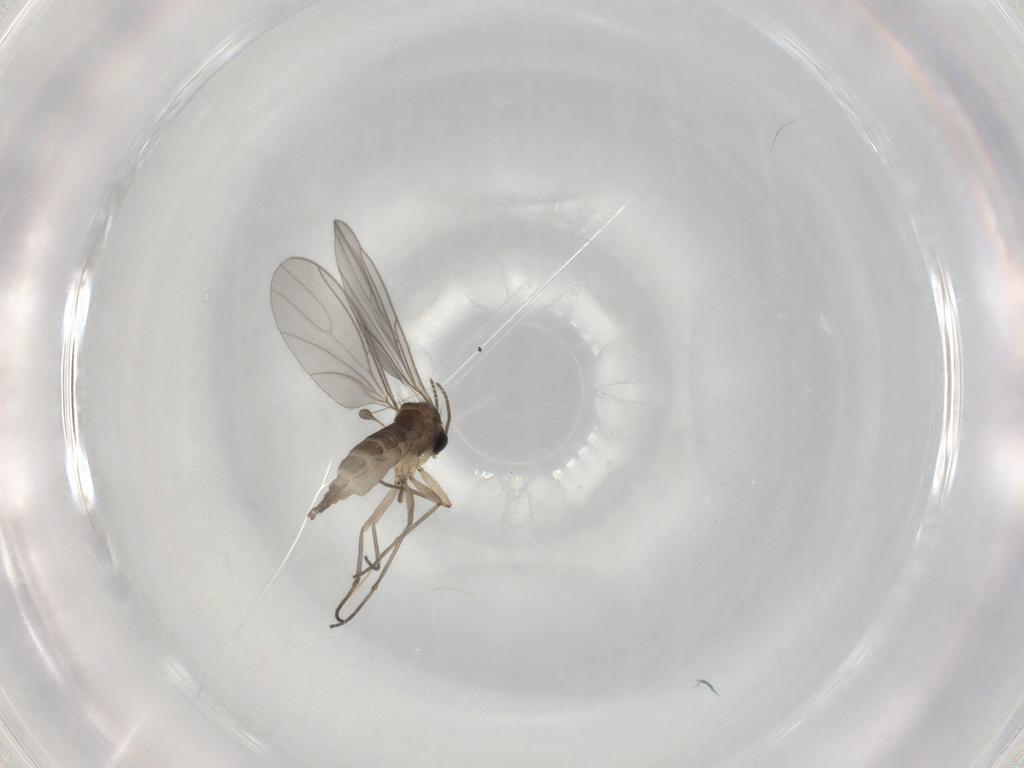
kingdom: Animalia
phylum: Arthropoda
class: Insecta
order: Diptera
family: Sciaridae
